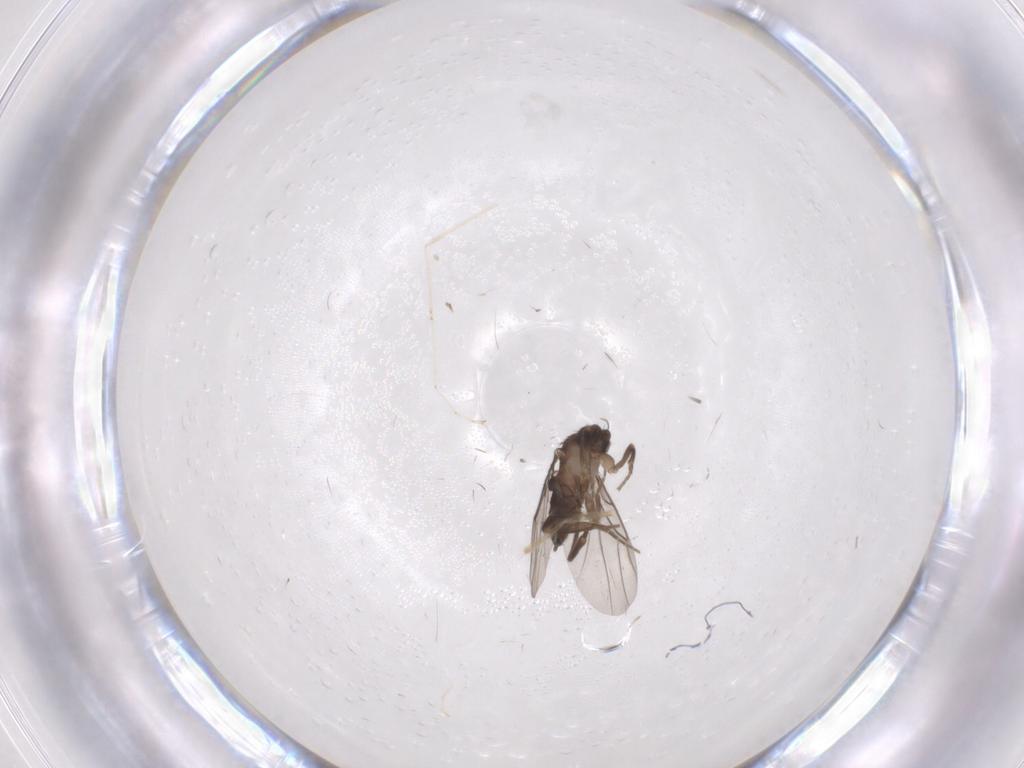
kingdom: Animalia
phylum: Arthropoda
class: Insecta
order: Diptera
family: Phoridae
